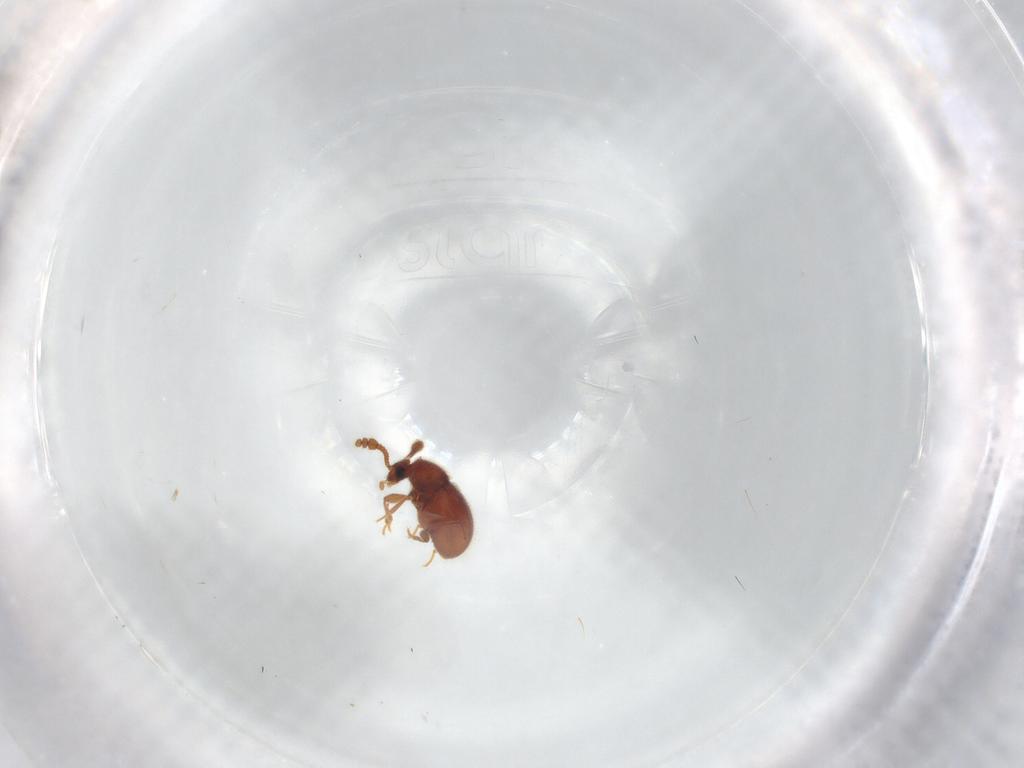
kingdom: Animalia
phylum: Arthropoda
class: Insecta
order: Coleoptera
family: Staphylinidae
